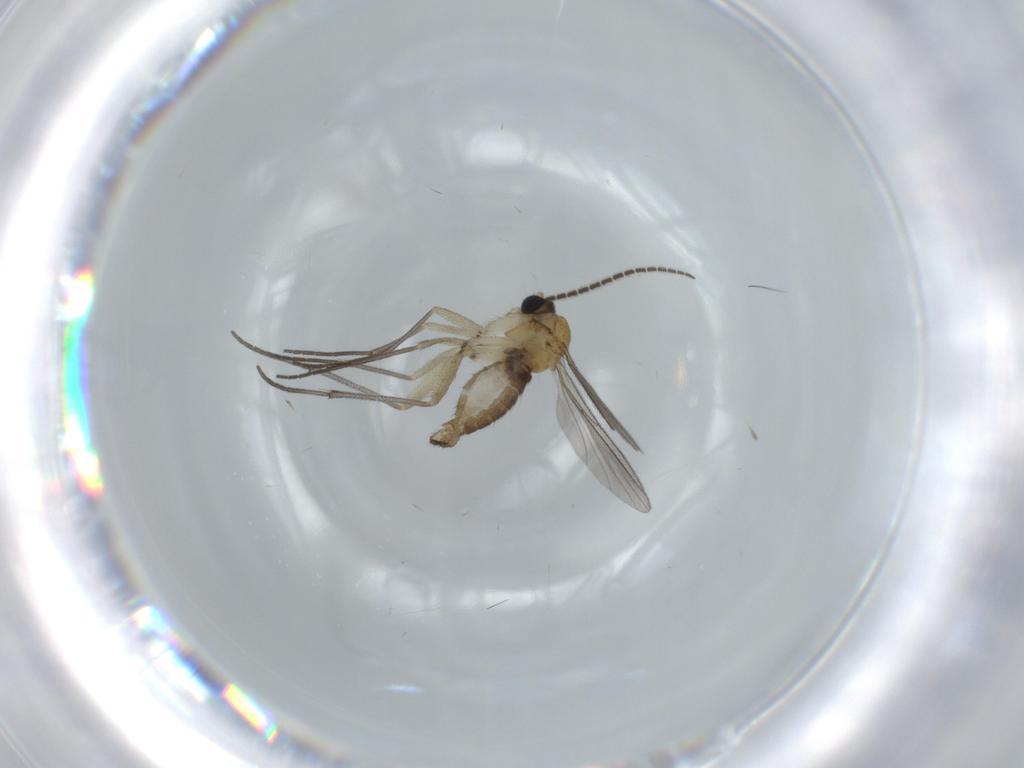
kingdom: Animalia
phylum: Arthropoda
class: Insecta
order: Diptera
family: Sciaridae
